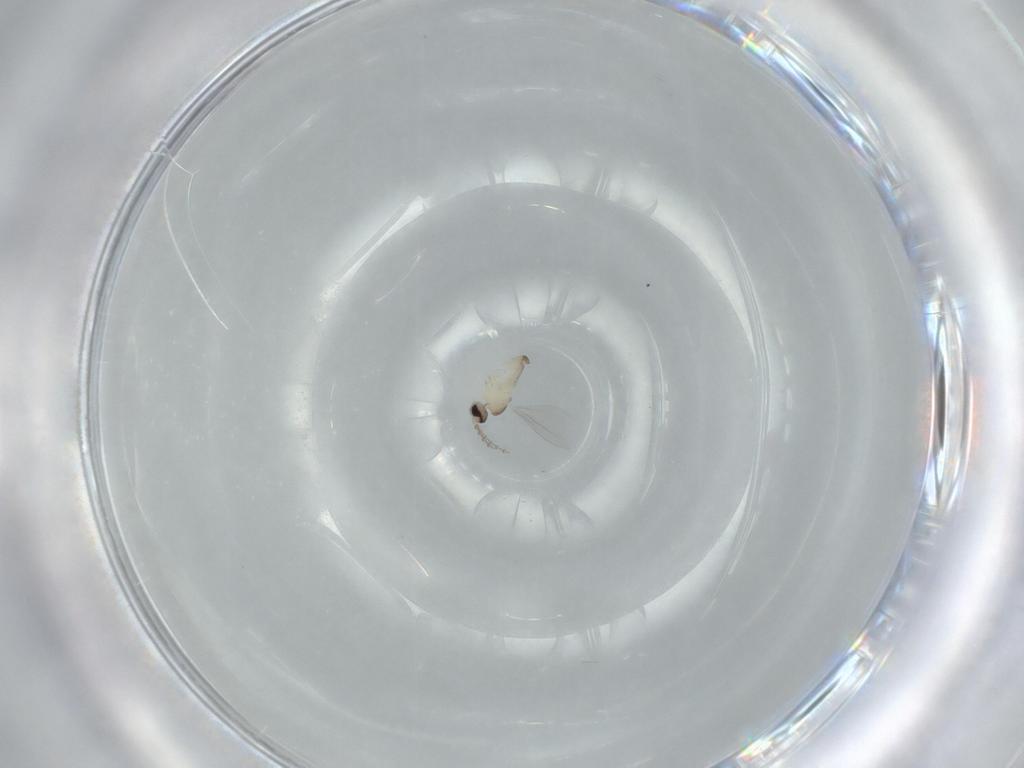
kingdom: Animalia
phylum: Arthropoda
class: Insecta
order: Diptera
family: Cecidomyiidae
